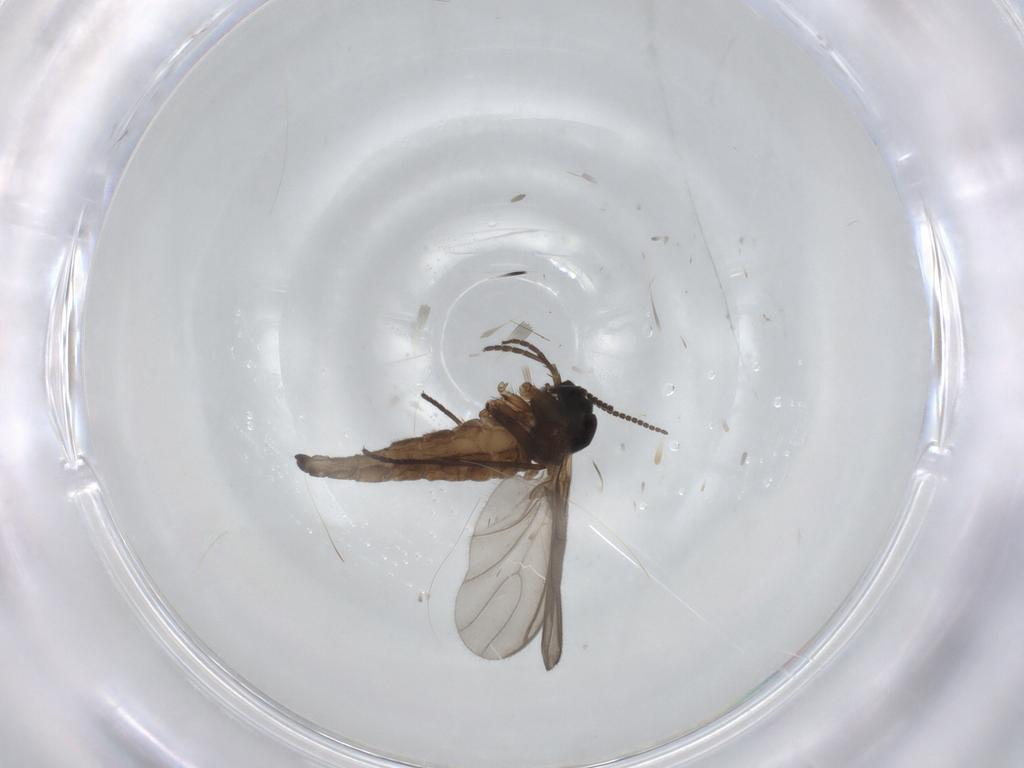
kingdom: Animalia
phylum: Arthropoda
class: Insecta
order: Diptera
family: Sciaridae
